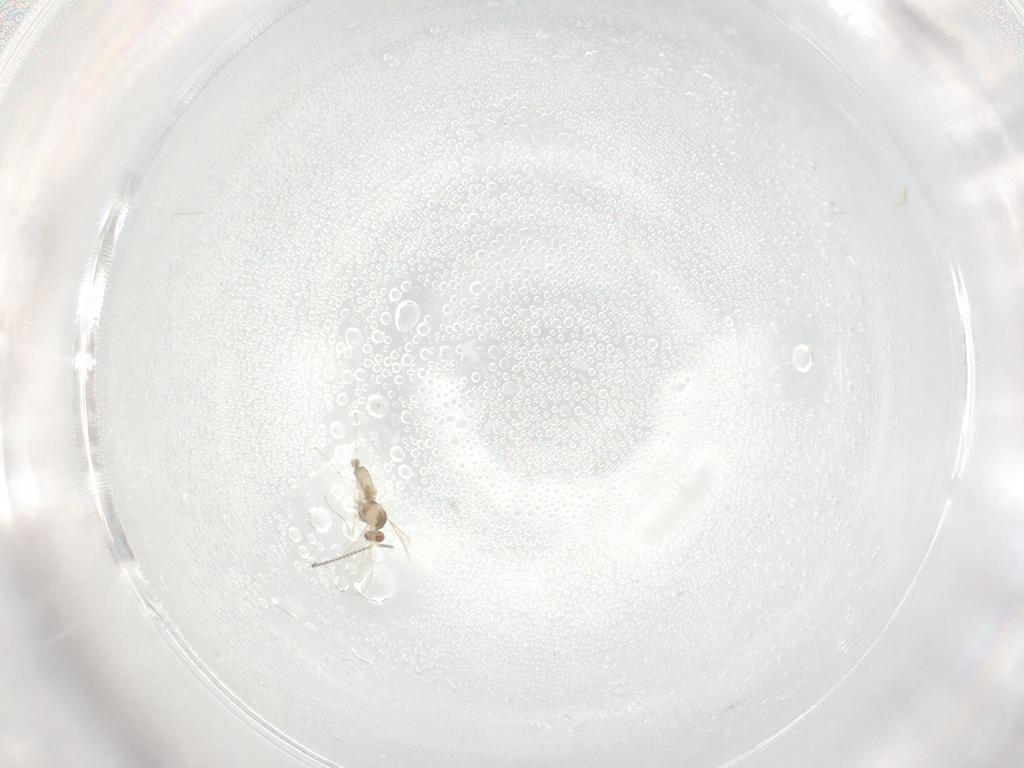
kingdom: Animalia
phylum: Arthropoda
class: Insecta
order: Diptera
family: Cecidomyiidae
